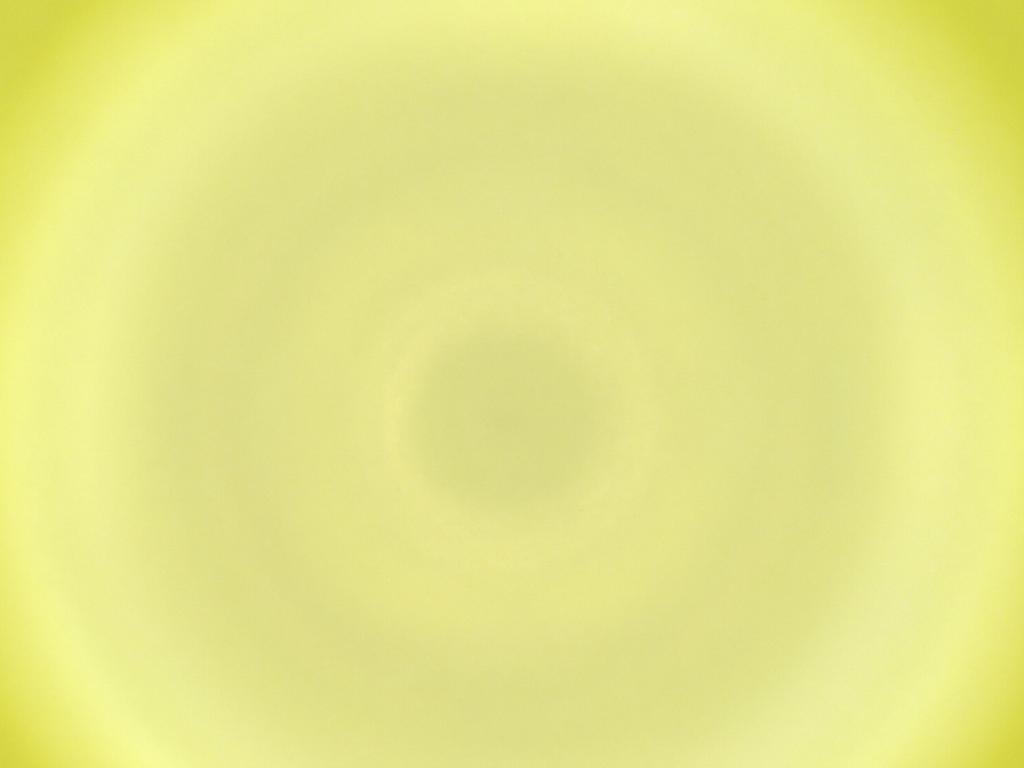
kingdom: Animalia
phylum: Arthropoda
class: Insecta
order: Diptera
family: Cecidomyiidae
